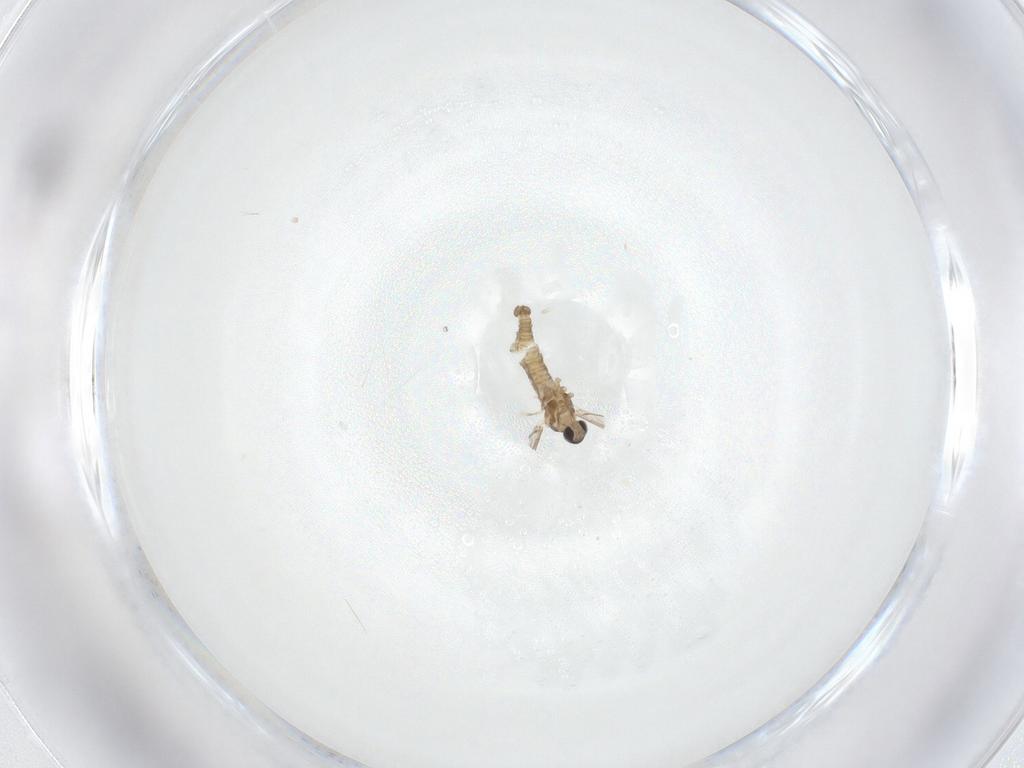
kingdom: Animalia
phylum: Arthropoda
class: Insecta
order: Diptera
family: Cecidomyiidae
